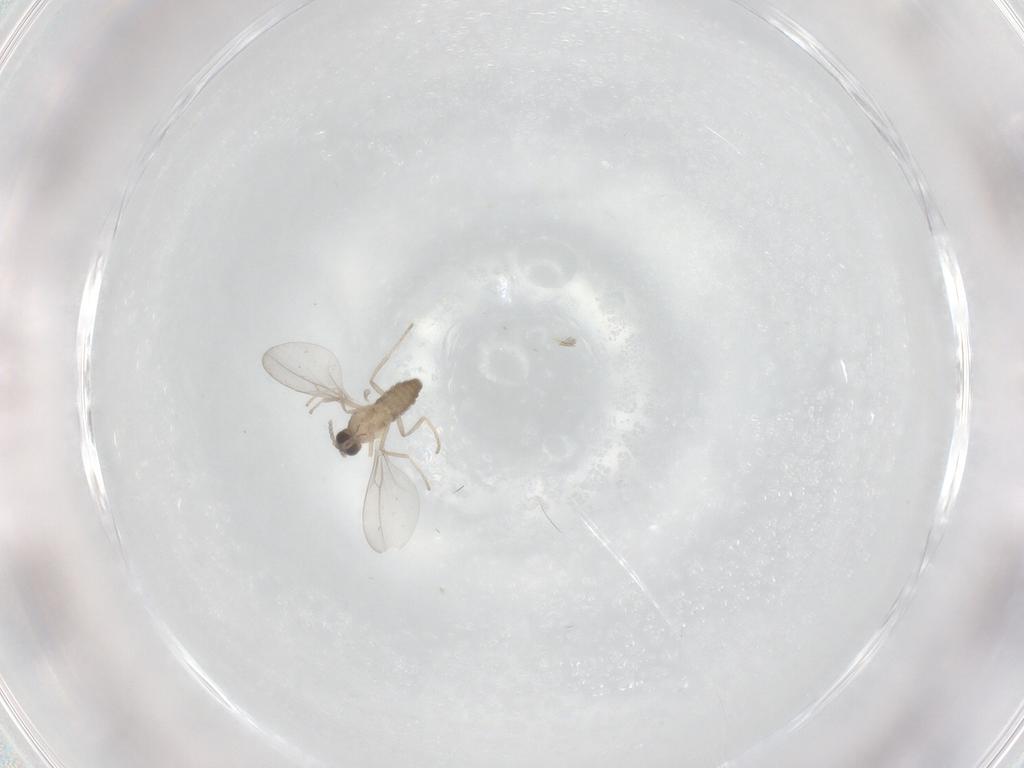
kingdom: Animalia
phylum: Arthropoda
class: Insecta
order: Diptera
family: Cecidomyiidae
